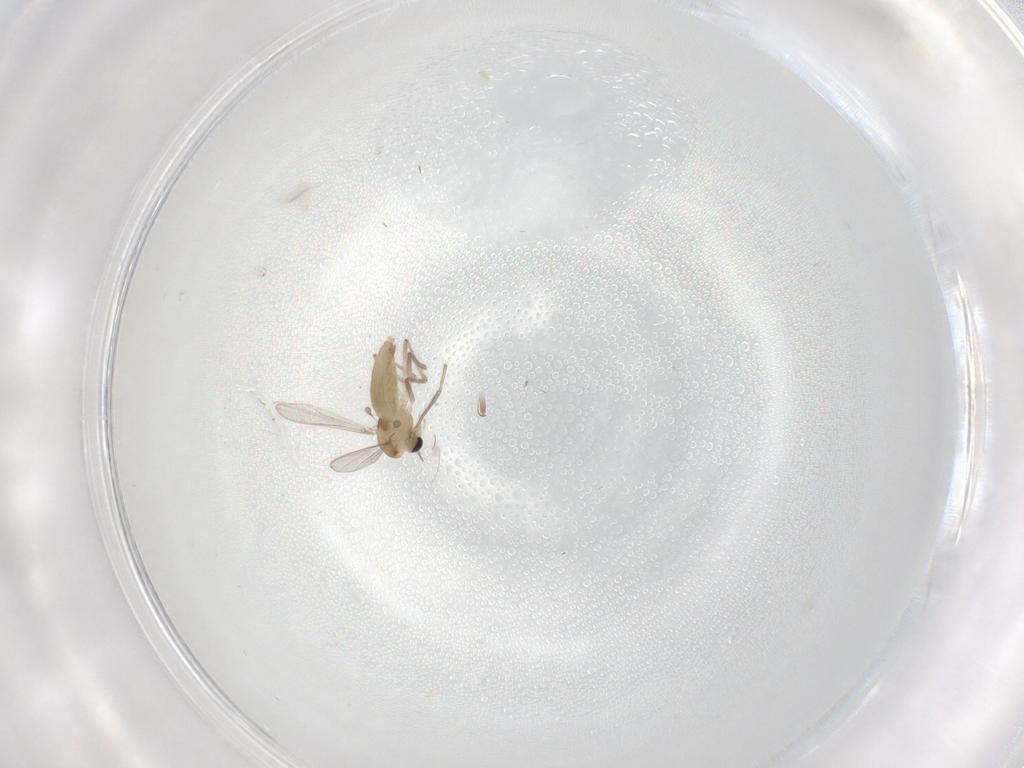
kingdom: Animalia
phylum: Arthropoda
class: Insecta
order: Diptera
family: Chironomidae
